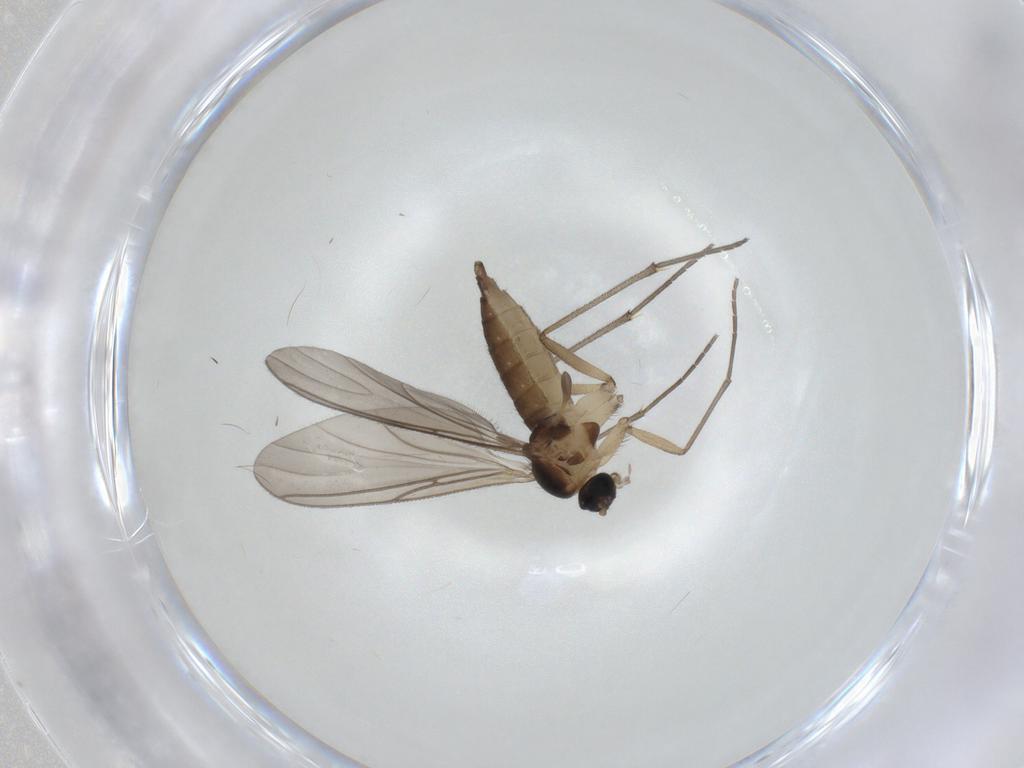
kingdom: Animalia
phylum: Arthropoda
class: Insecta
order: Diptera
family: Sciaridae
